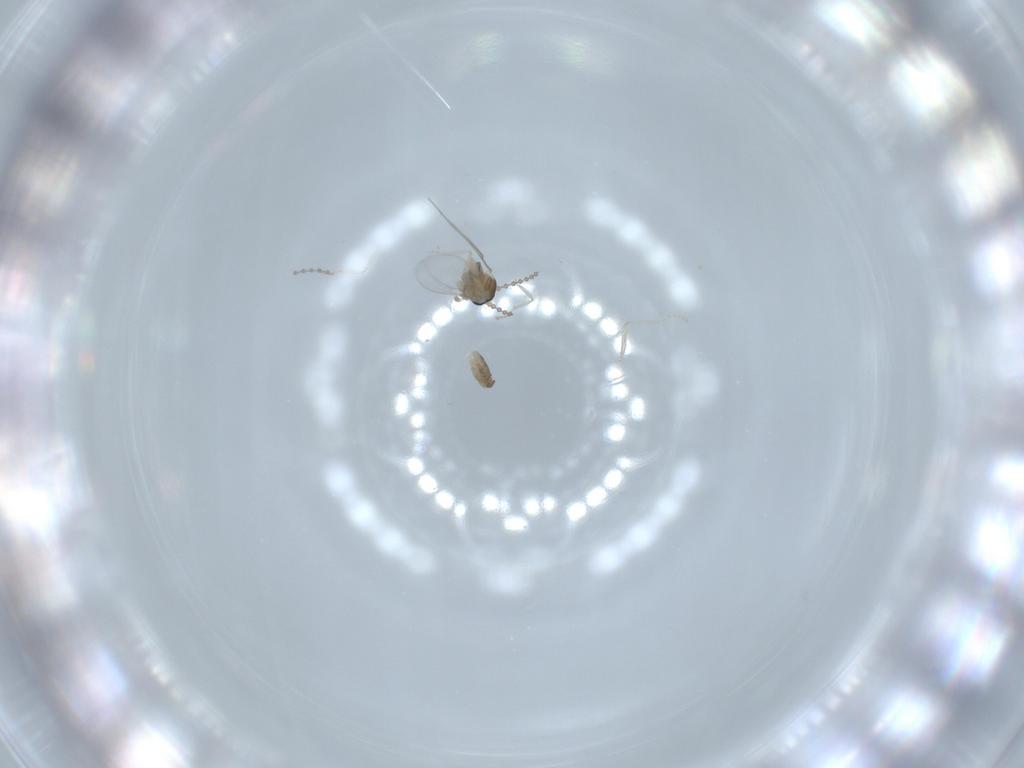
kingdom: Animalia
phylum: Arthropoda
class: Insecta
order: Diptera
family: Cecidomyiidae
